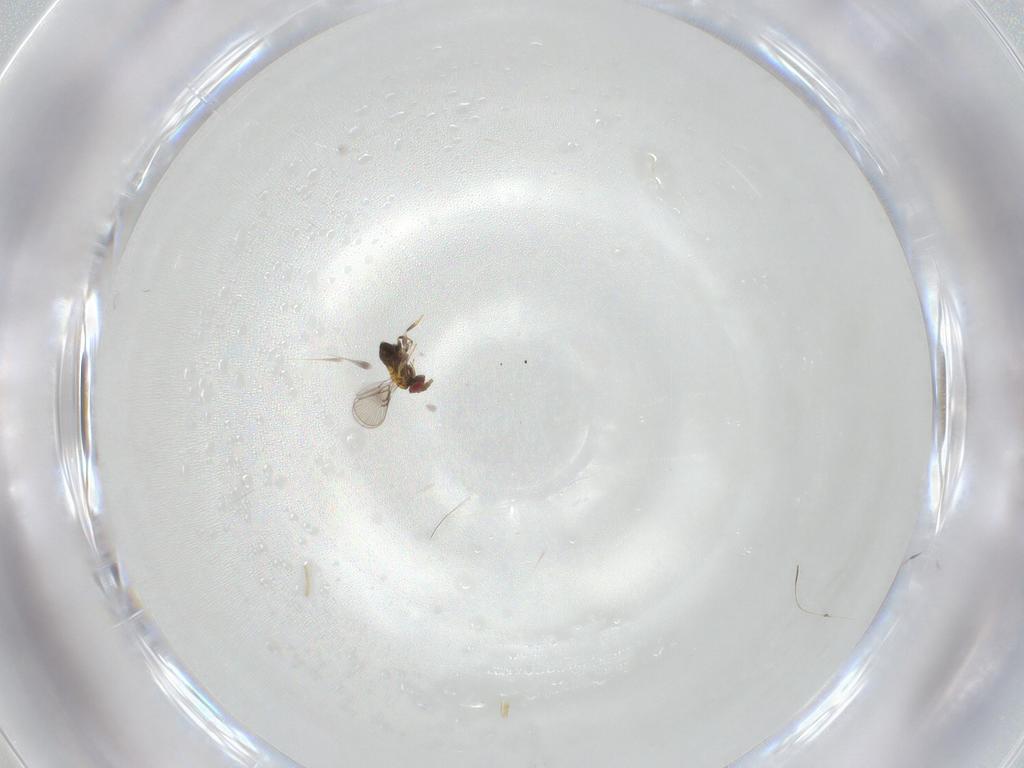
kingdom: Animalia
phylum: Arthropoda
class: Insecta
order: Hymenoptera
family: Trichogrammatidae
